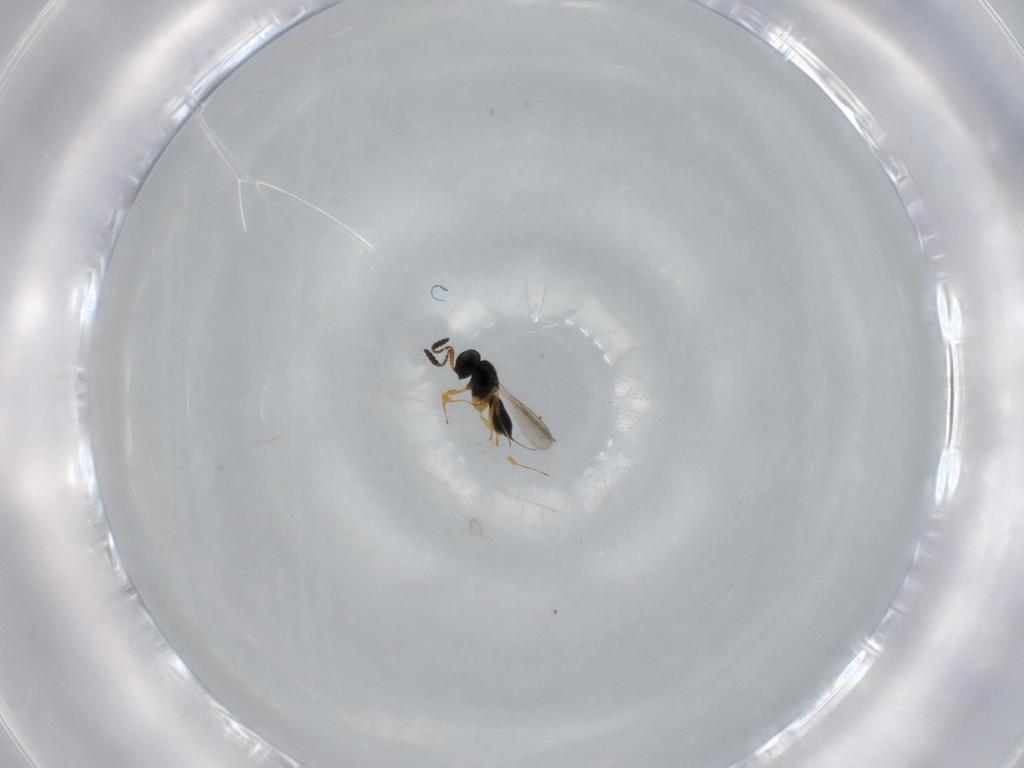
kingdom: Animalia
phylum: Arthropoda
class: Insecta
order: Hymenoptera
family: Scelionidae
